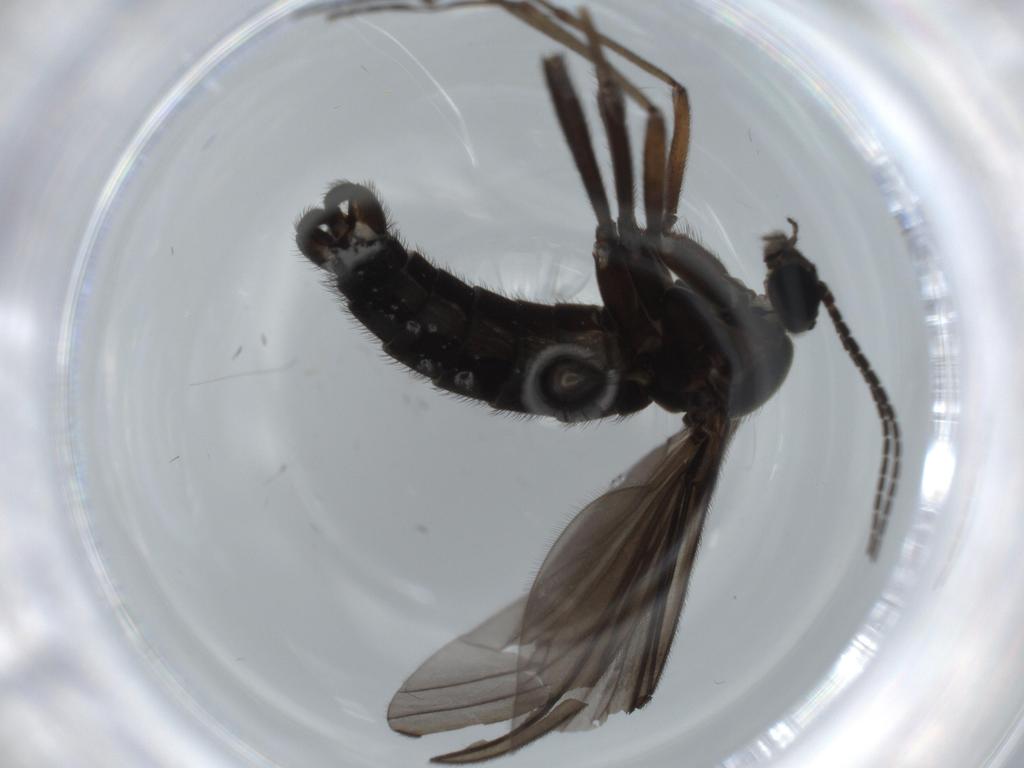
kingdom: Animalia
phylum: Arthropoda
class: Insecta
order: Diptera
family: Sciaridae
